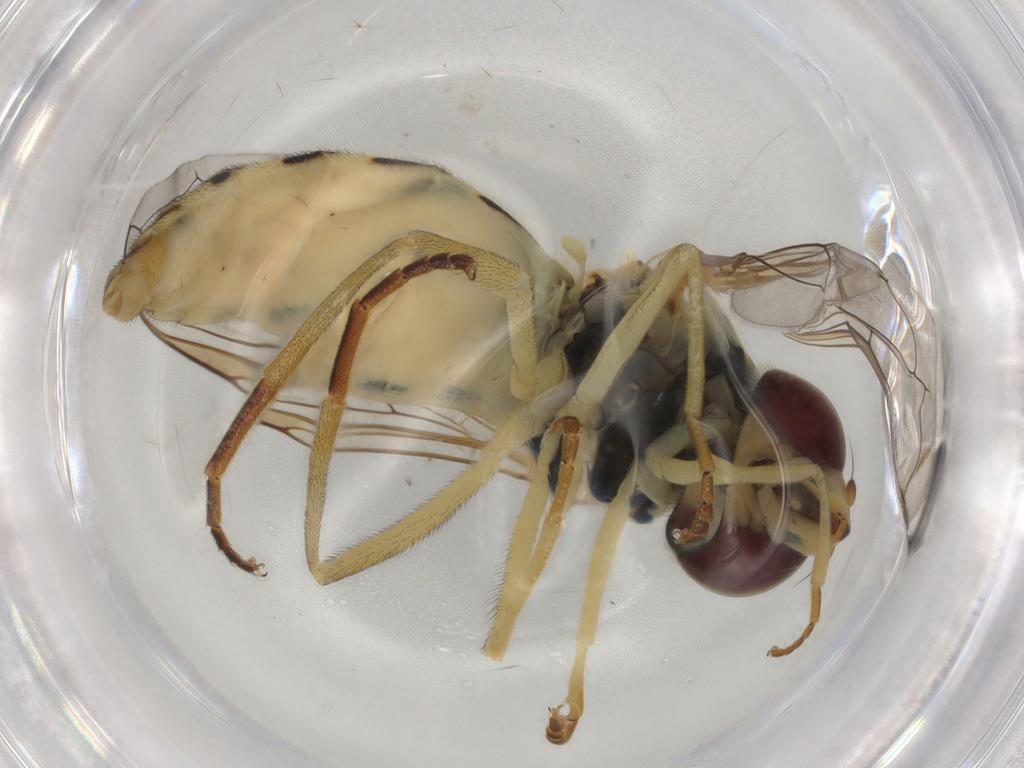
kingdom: Animalia
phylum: Arthropoda
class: Insecta
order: Diptera
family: Syrphidae
